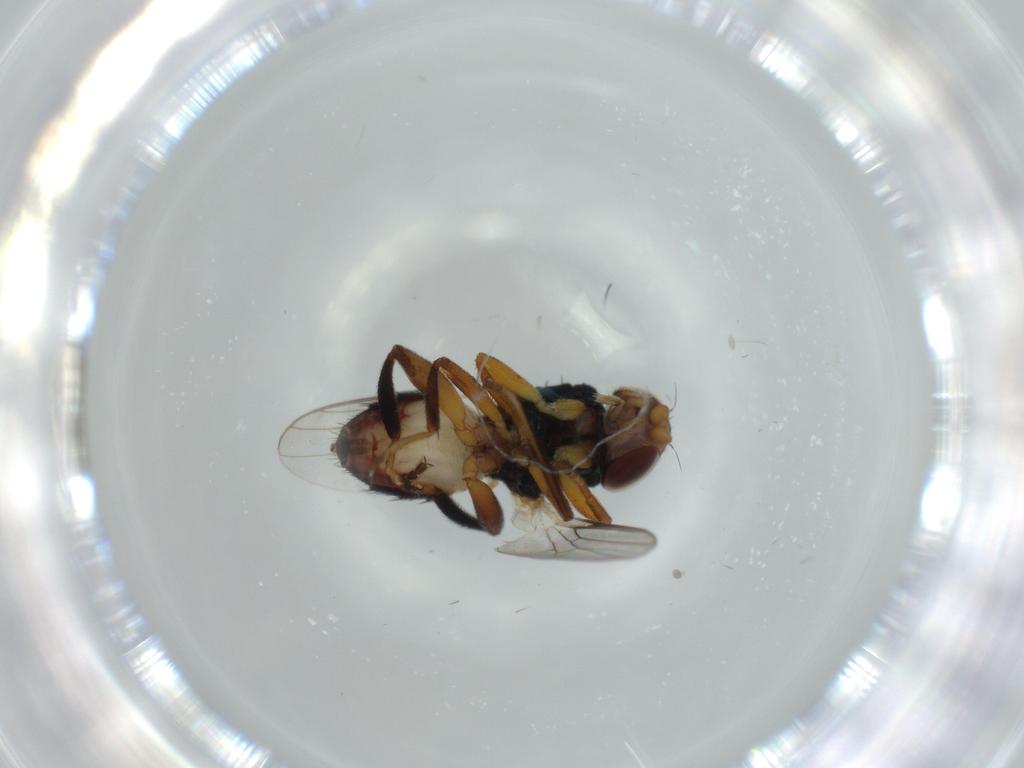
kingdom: Animalia
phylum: Arthropoda
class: Insecta
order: Diptera
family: Chloropidae
